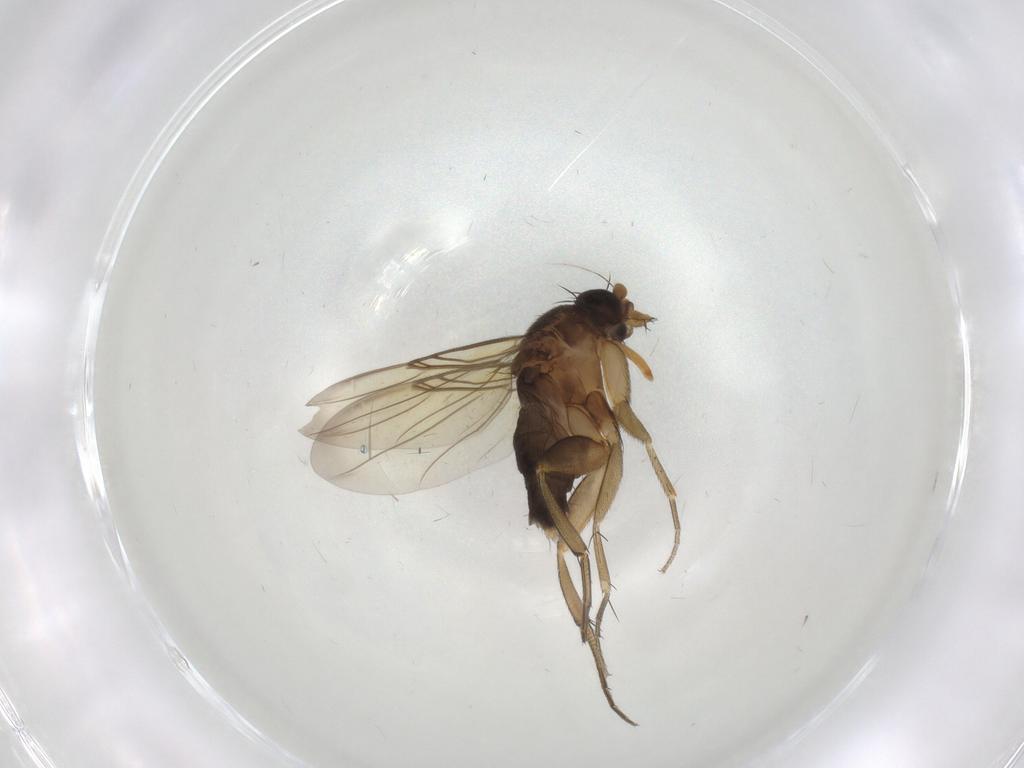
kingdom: Animalia
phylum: Arthropoda
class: Insecta
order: Diptera
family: Phoridae
